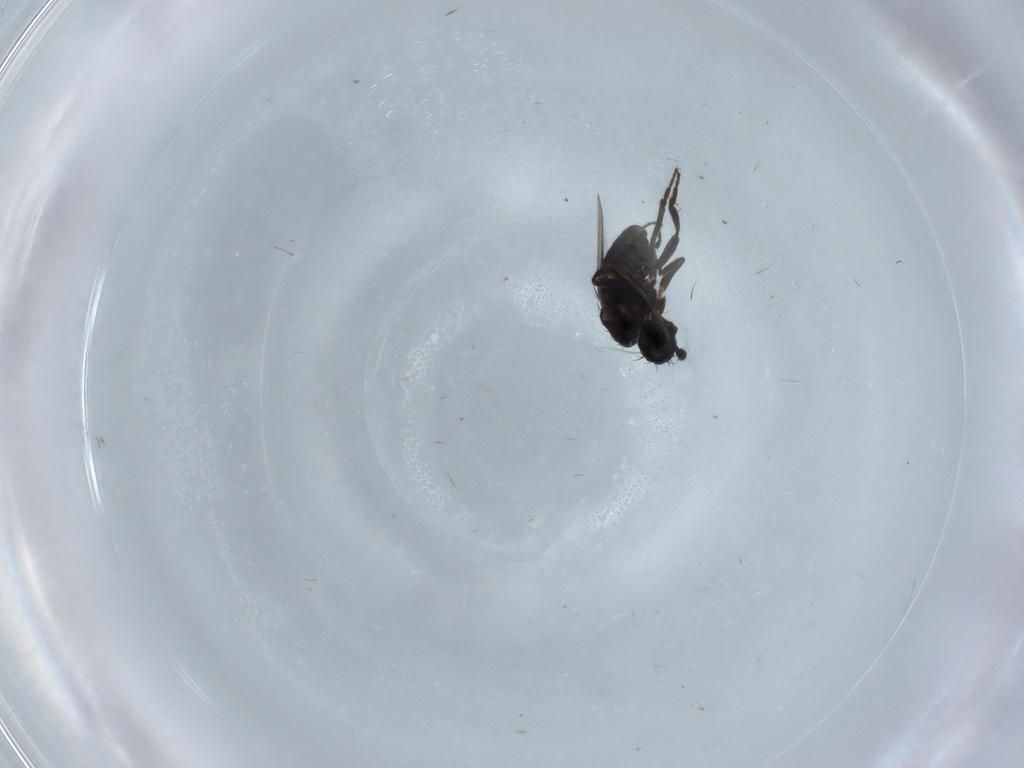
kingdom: Animalia
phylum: Arthropoda
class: Insecta
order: Diptera
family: Sphaeroceridae
